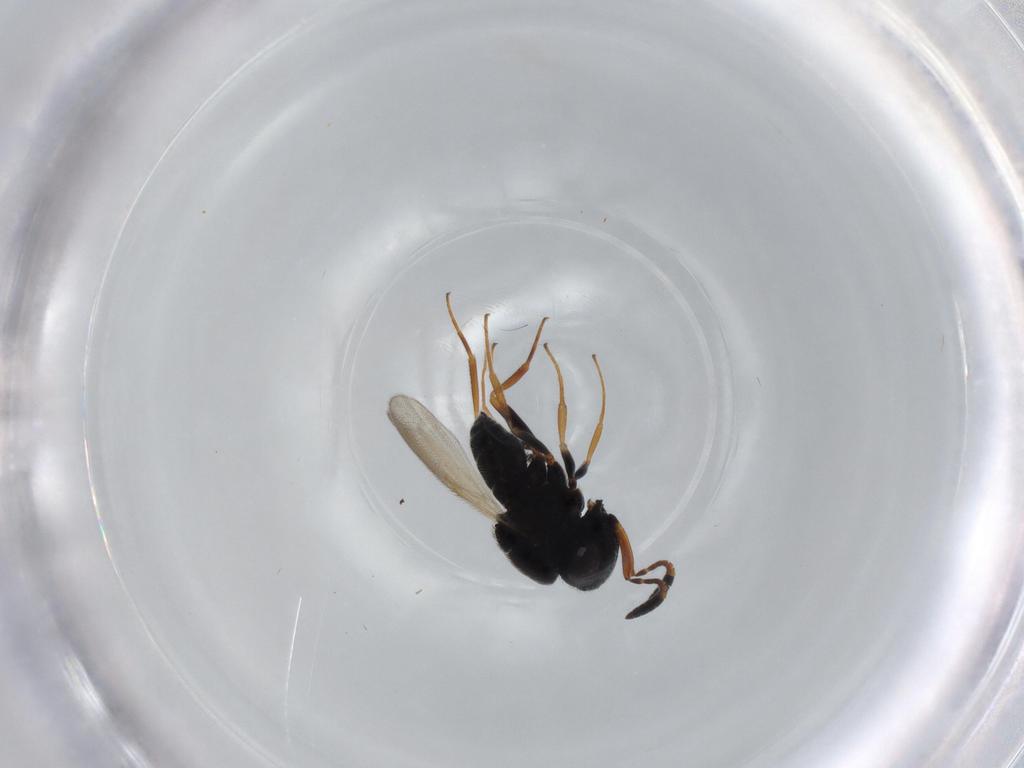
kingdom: Animalia
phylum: Arthropoda
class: Insecta
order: Hymenoptera
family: Scelionidae
